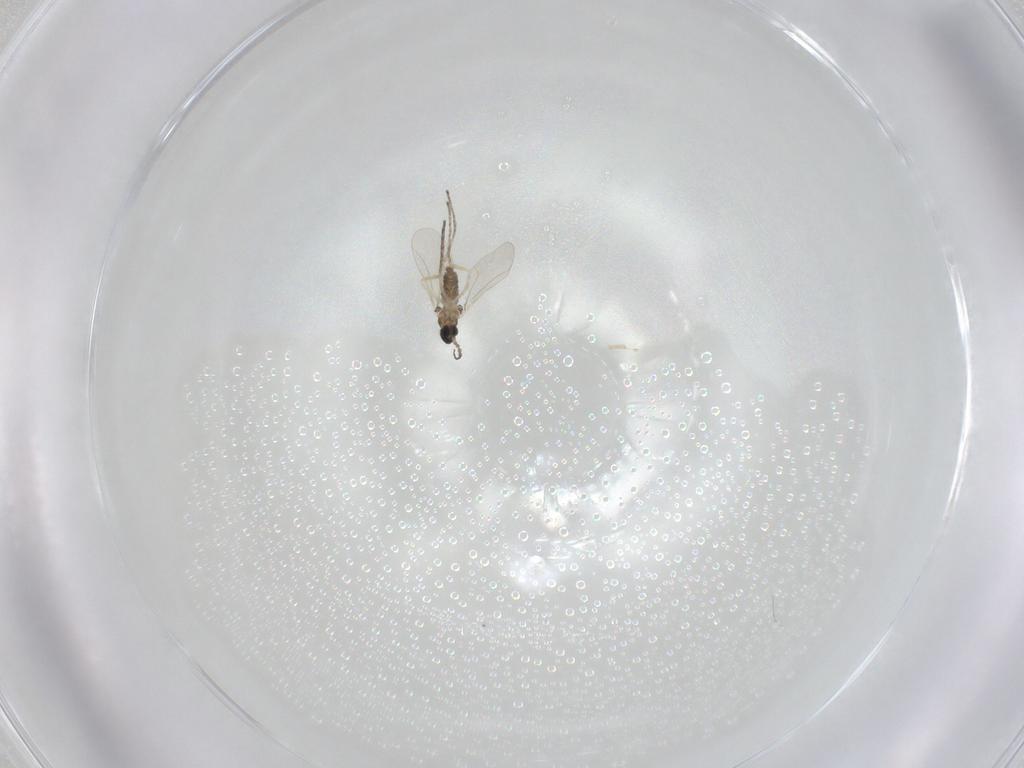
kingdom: Animalia
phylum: Arthropoda
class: Insecta
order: Diptera
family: Cecidomyiidae
